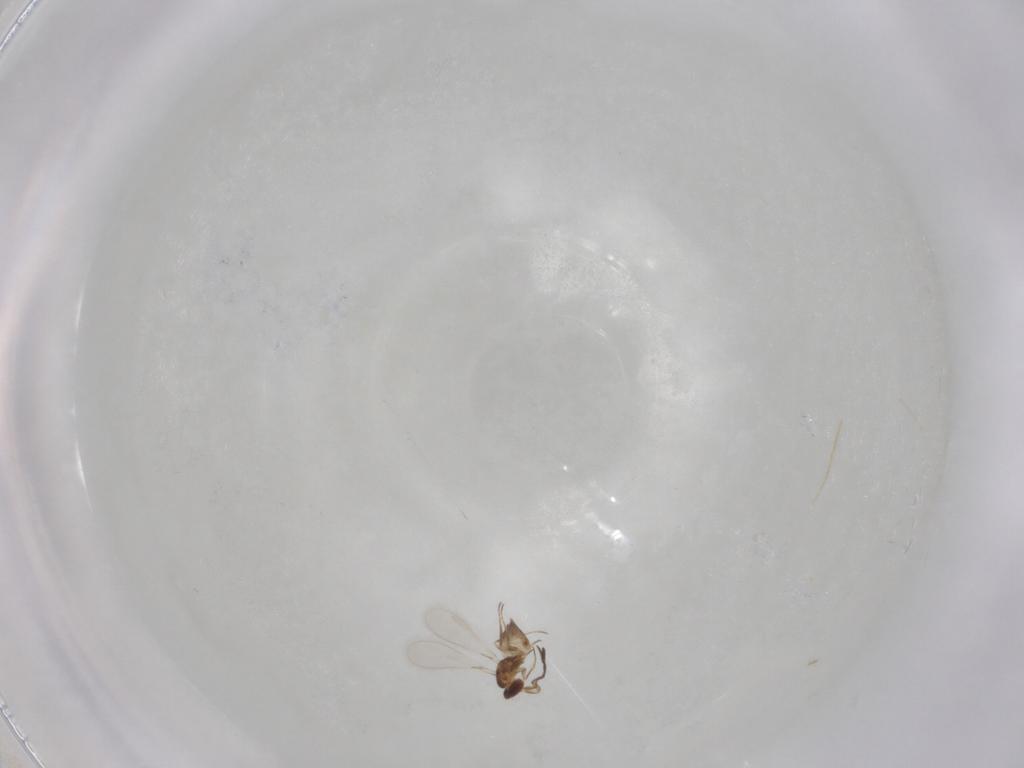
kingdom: Animalia
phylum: Arthropoda
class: Insecta
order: Hymenoptera
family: Mymaridae
